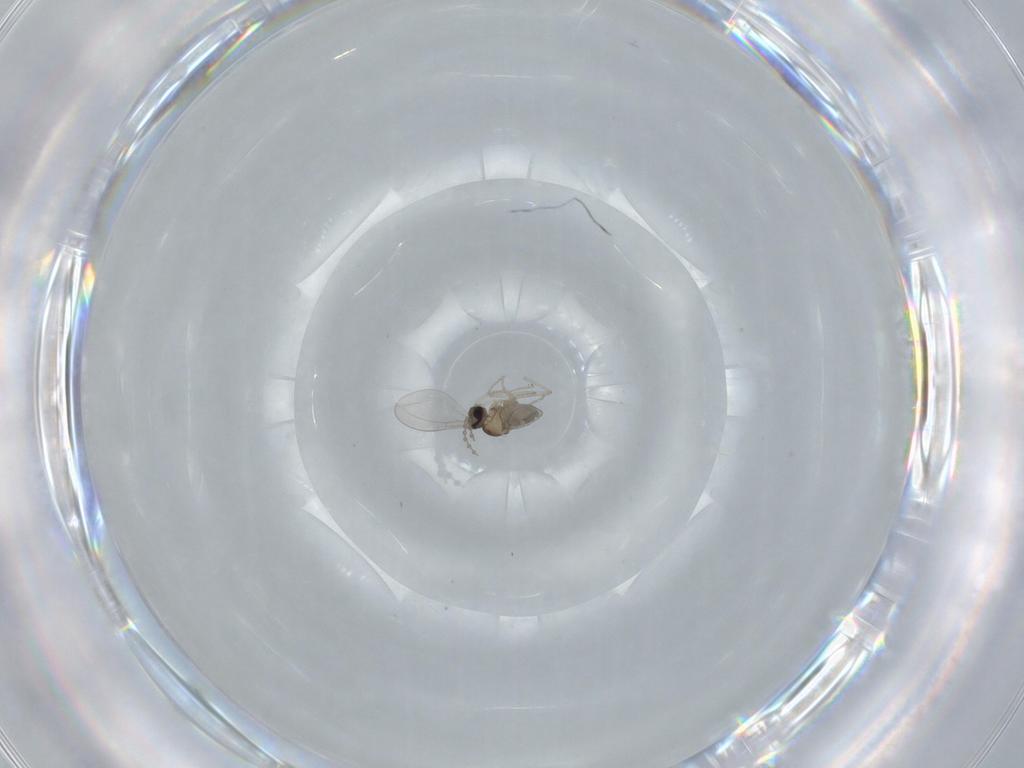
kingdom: Animalia
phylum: Arthropoda
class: Insecta
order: Diptera
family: Cecidomyiidae
